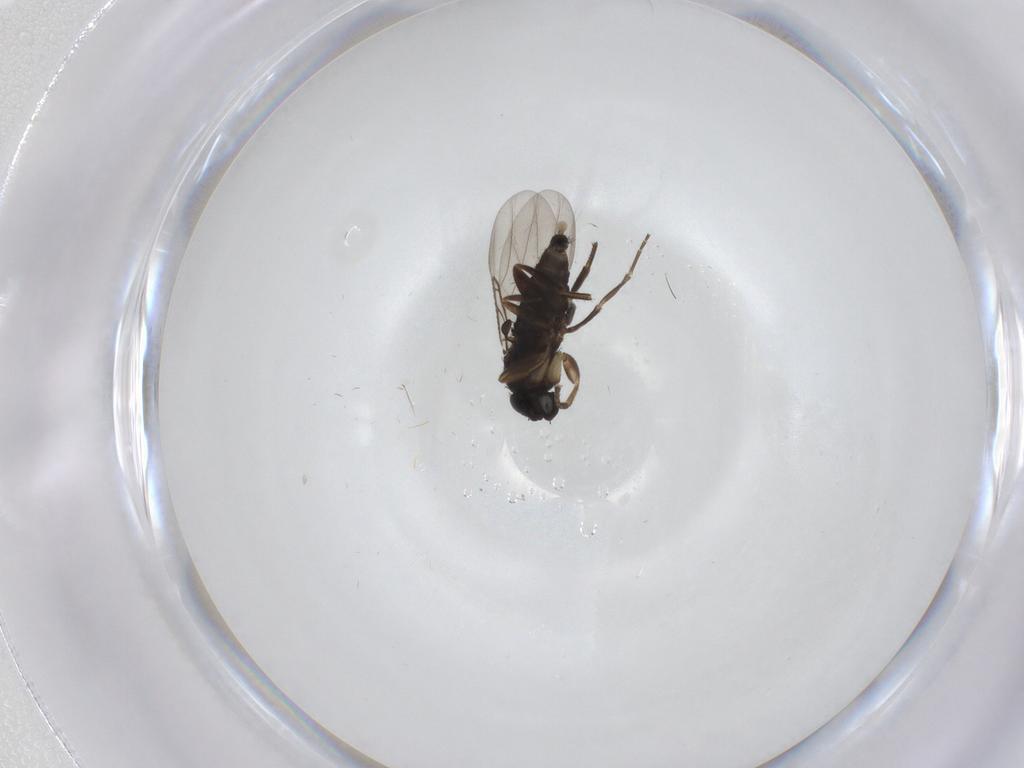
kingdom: Animalia
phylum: Arthropoda
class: Insecta
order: Diptera
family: Phoridae
